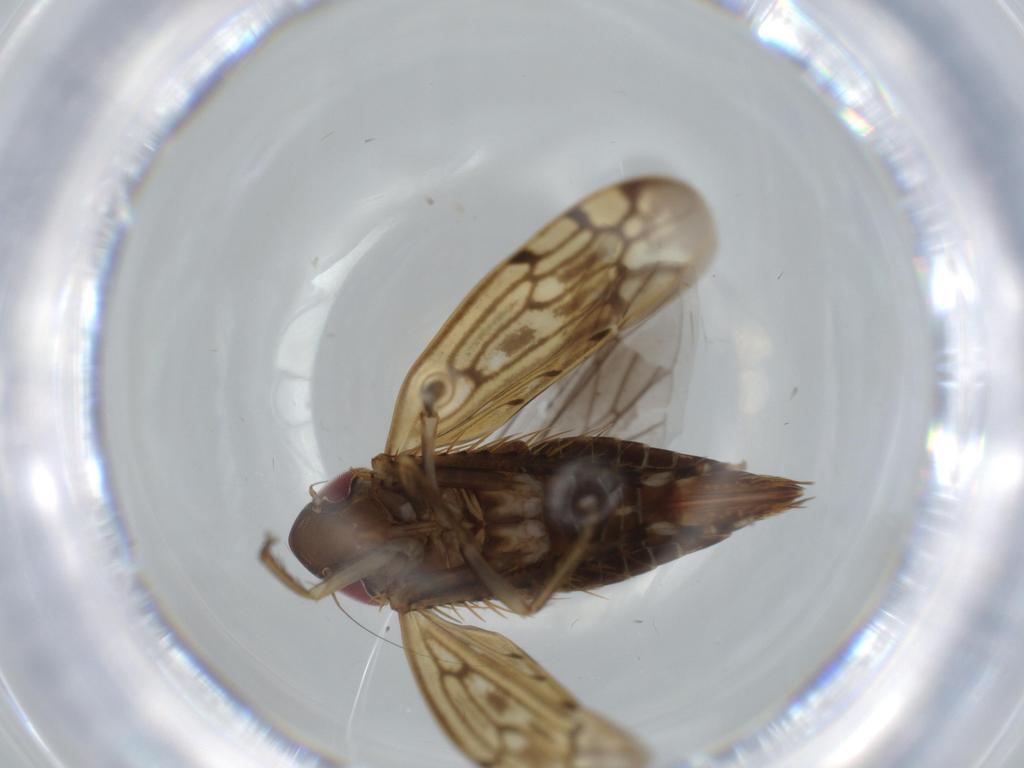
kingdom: Animalia
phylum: Arthropoda
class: Insecta
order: Hemiptera
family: Cicadellidae
